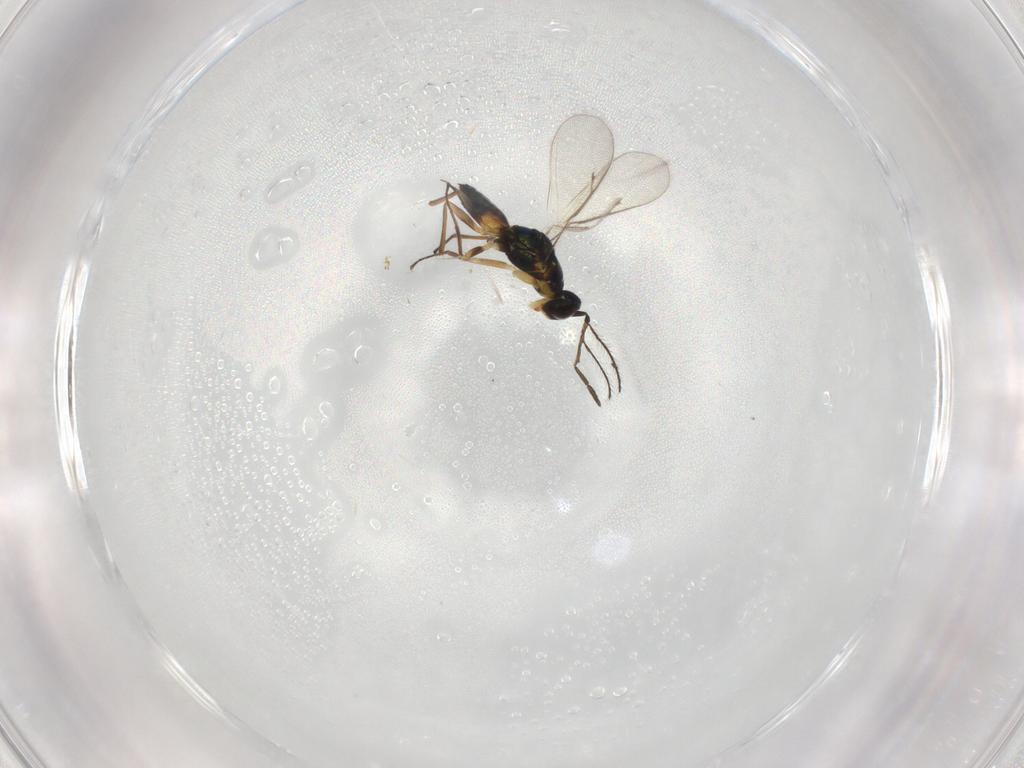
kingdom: Animalia
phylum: Arthropoda
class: Insecta
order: Hymenoptera
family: Eulophidae
